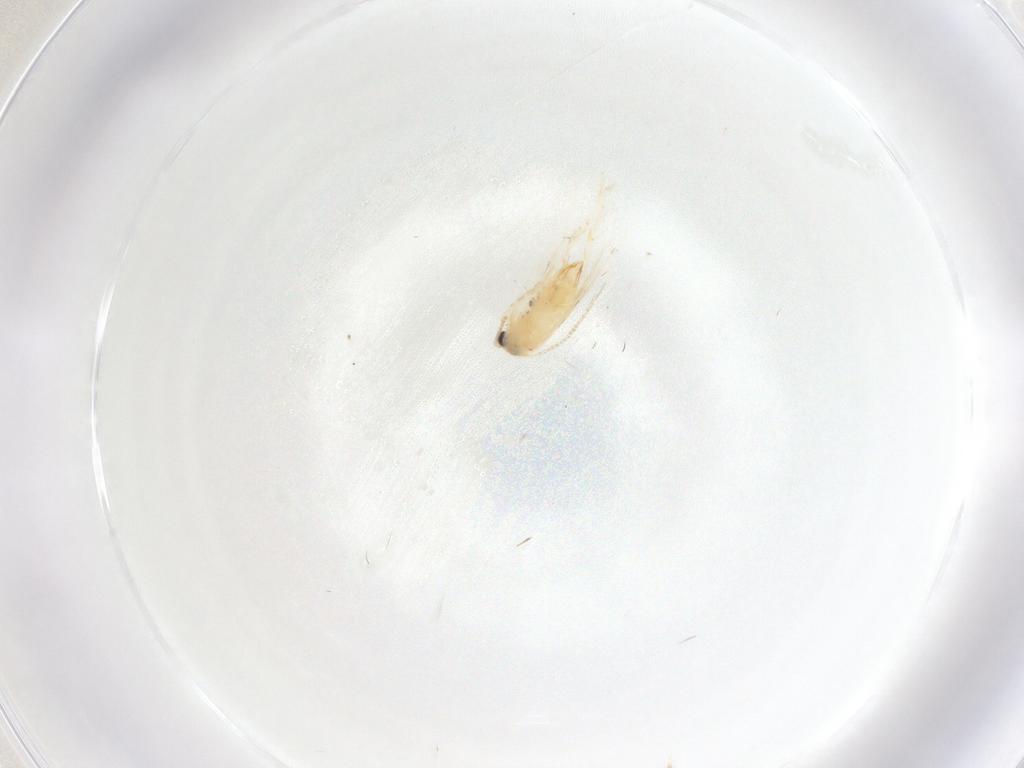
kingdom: Animalia
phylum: Arthropoda
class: Insecta
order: Lepidoptera
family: Nepticulidae
